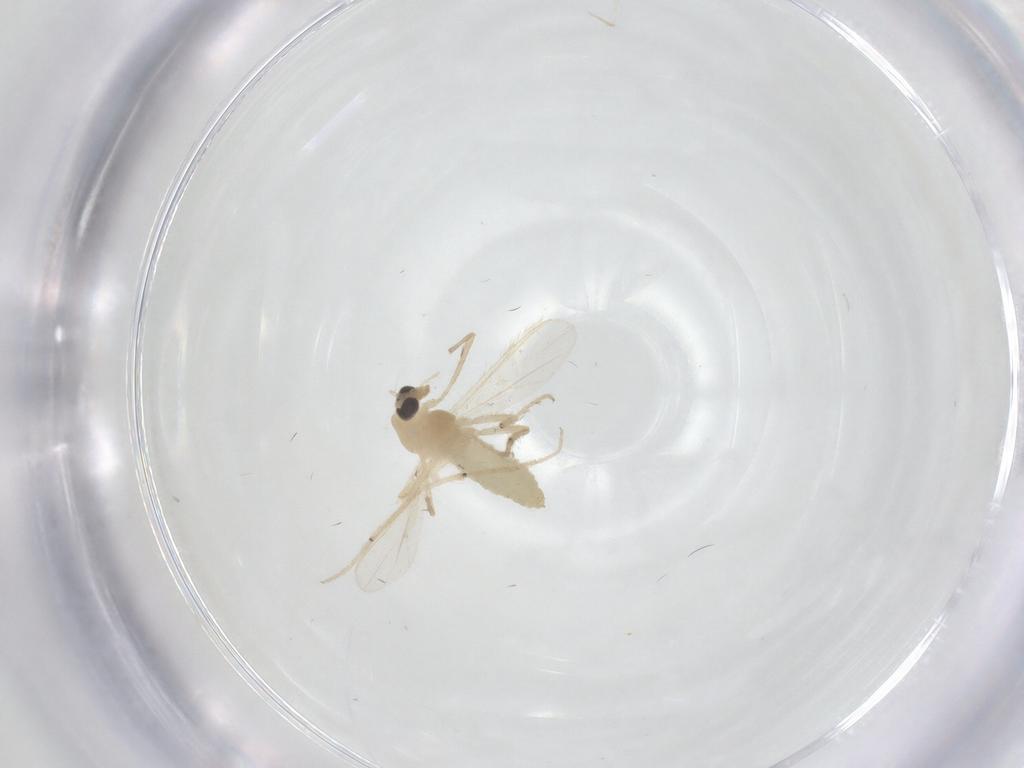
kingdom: Animalia
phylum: Arthropoda
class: Insecta
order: Diptera
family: Chironomidae
